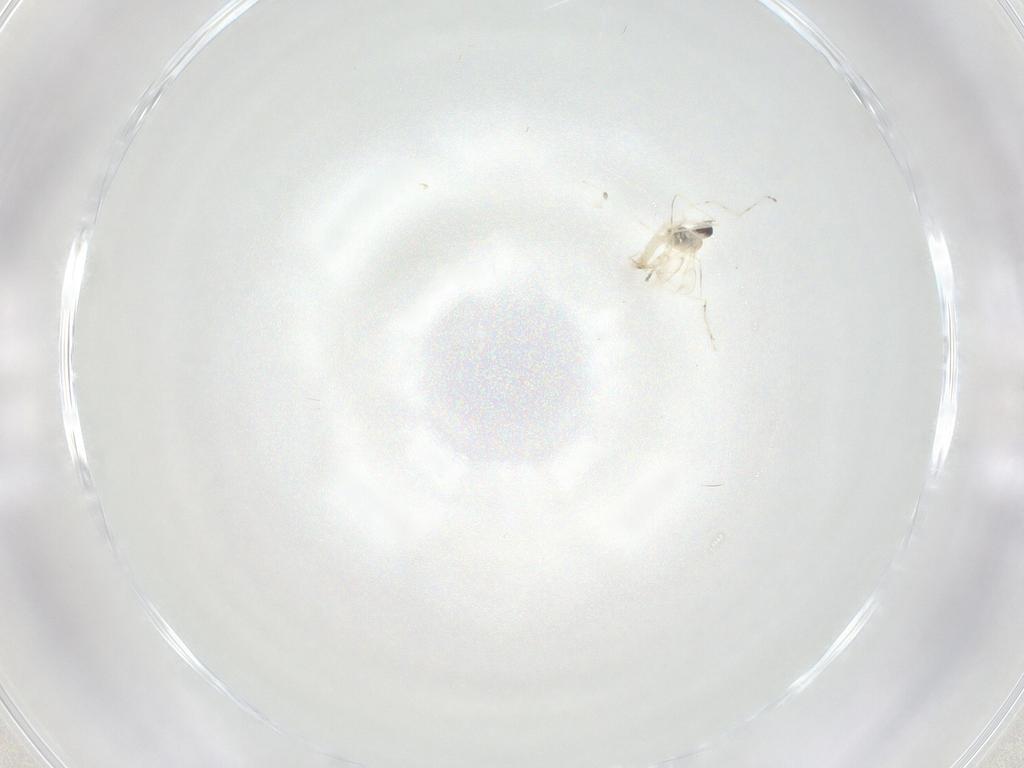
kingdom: Animalia
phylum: Arthropoda
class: Insecta
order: Diptera
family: Cecidomyiidae
